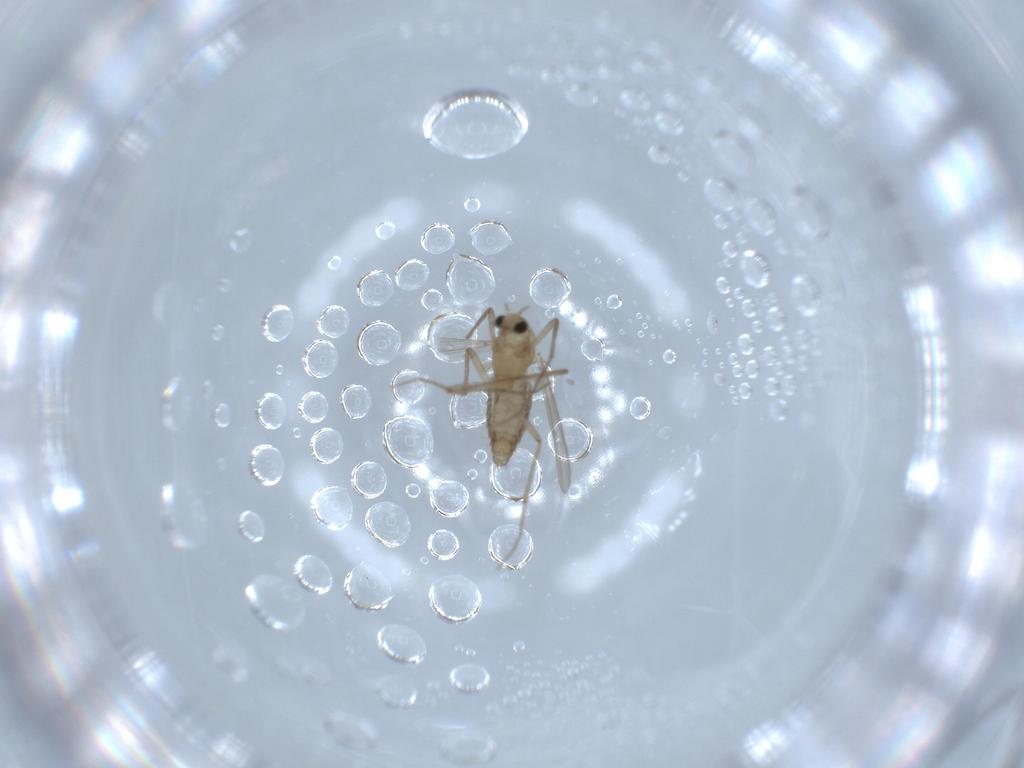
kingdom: Animalia
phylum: Arthropoda
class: Insecta
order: Diptera
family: Chironomidae
